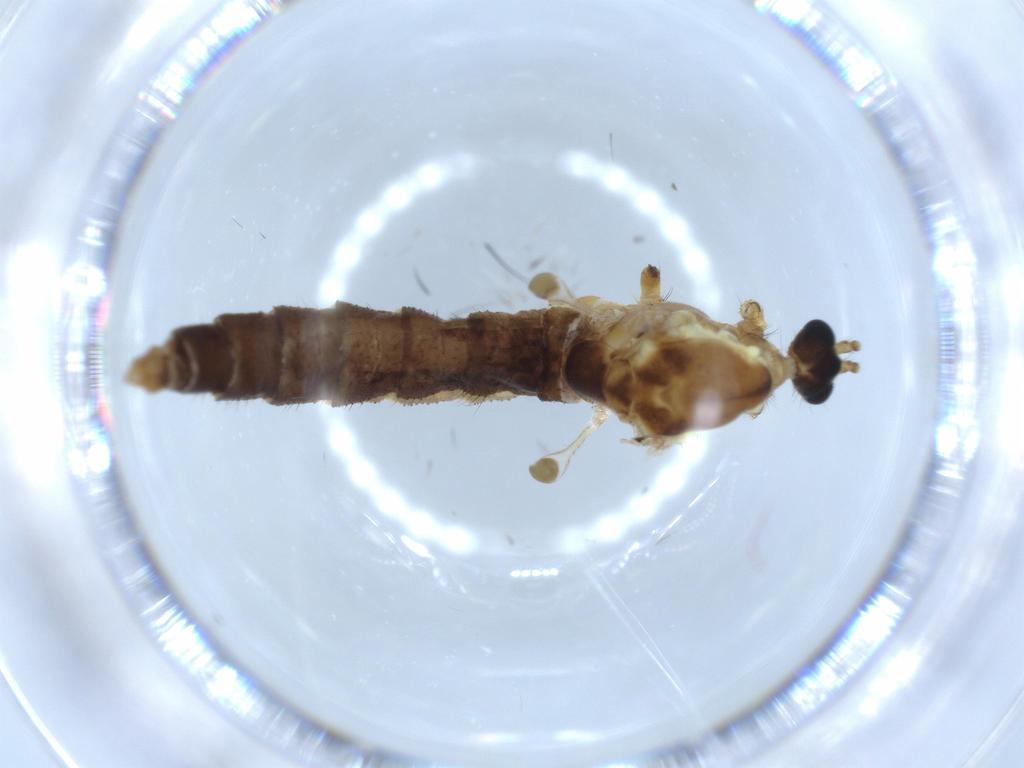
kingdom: Animalia
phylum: Arthropoda
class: Insecta
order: Diptera
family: Limoniidae
